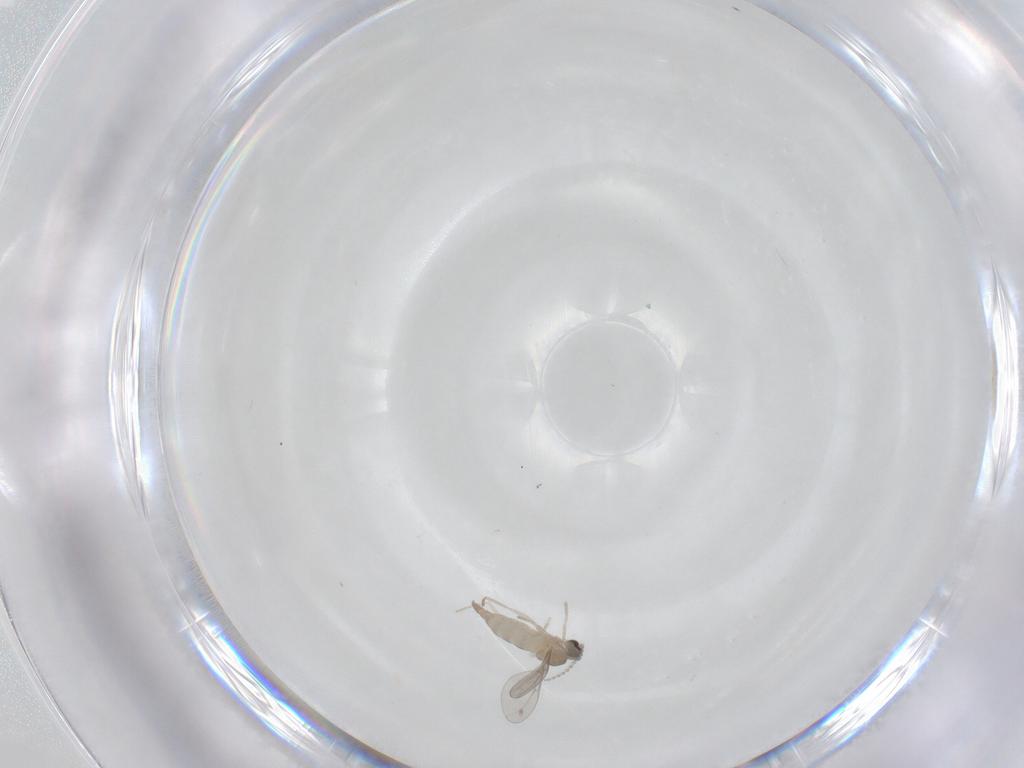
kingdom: Animalia
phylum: Arthropoda
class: Insecta
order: Diptera
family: Cecidomyiidae
